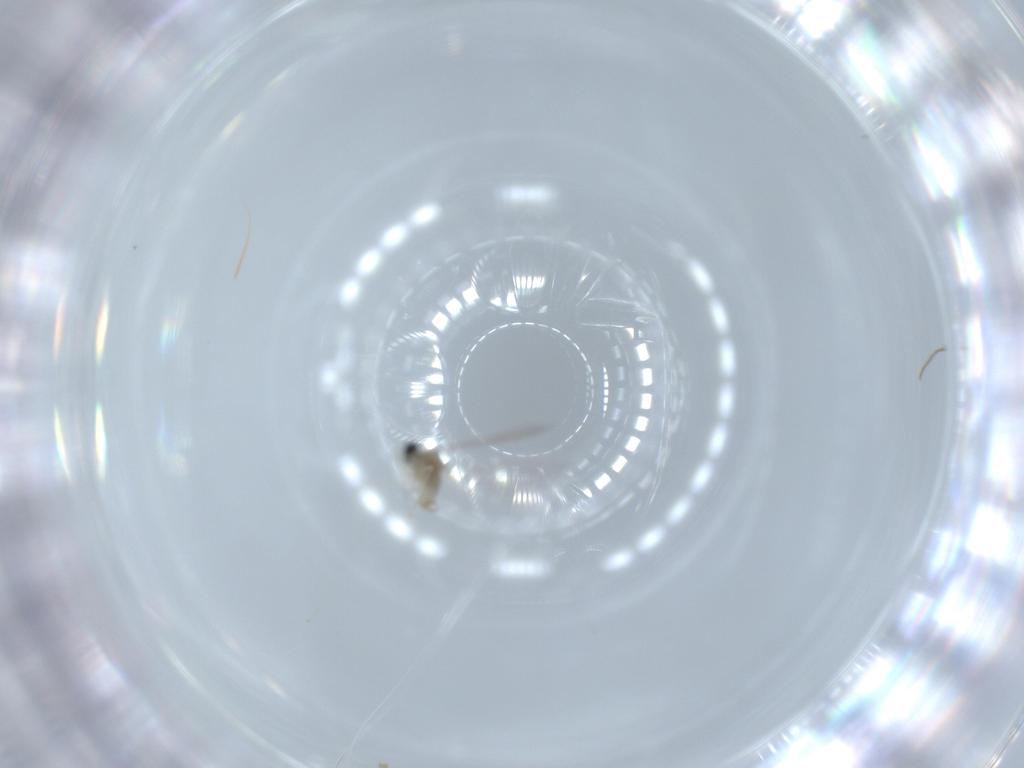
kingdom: Animalia
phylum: Arthropoda
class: Insecta
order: Diptera
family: Cecidomyiidae
